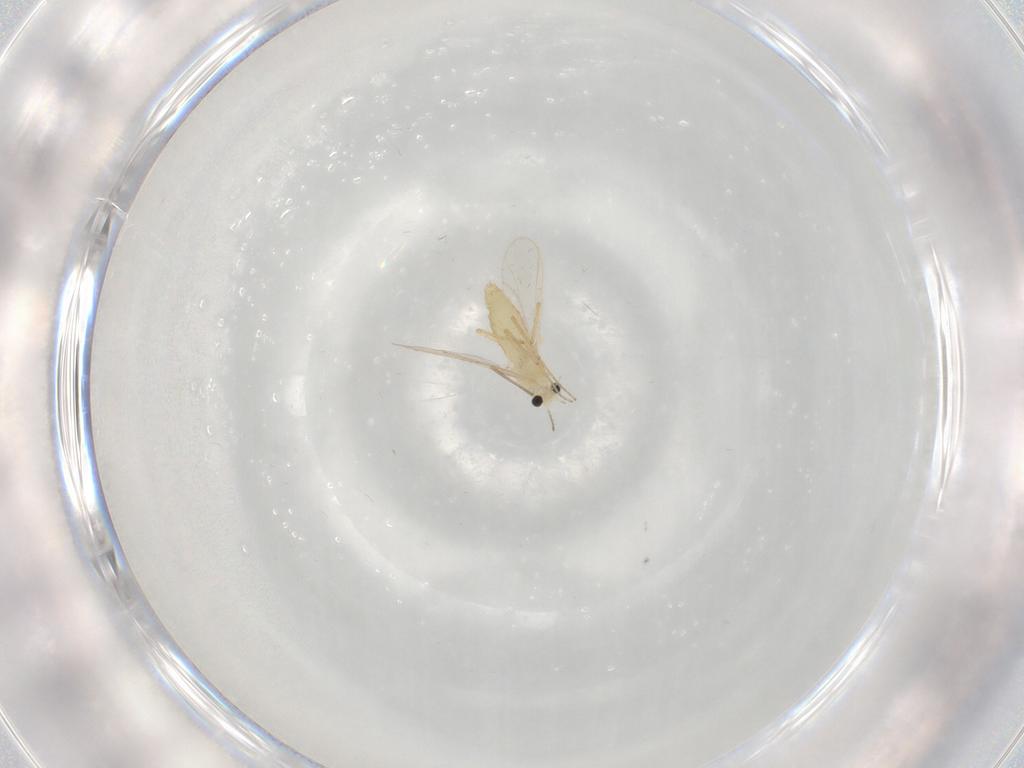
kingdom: Animalia
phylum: Arthropoda
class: Insecta
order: Diptera
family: Chironomidae
